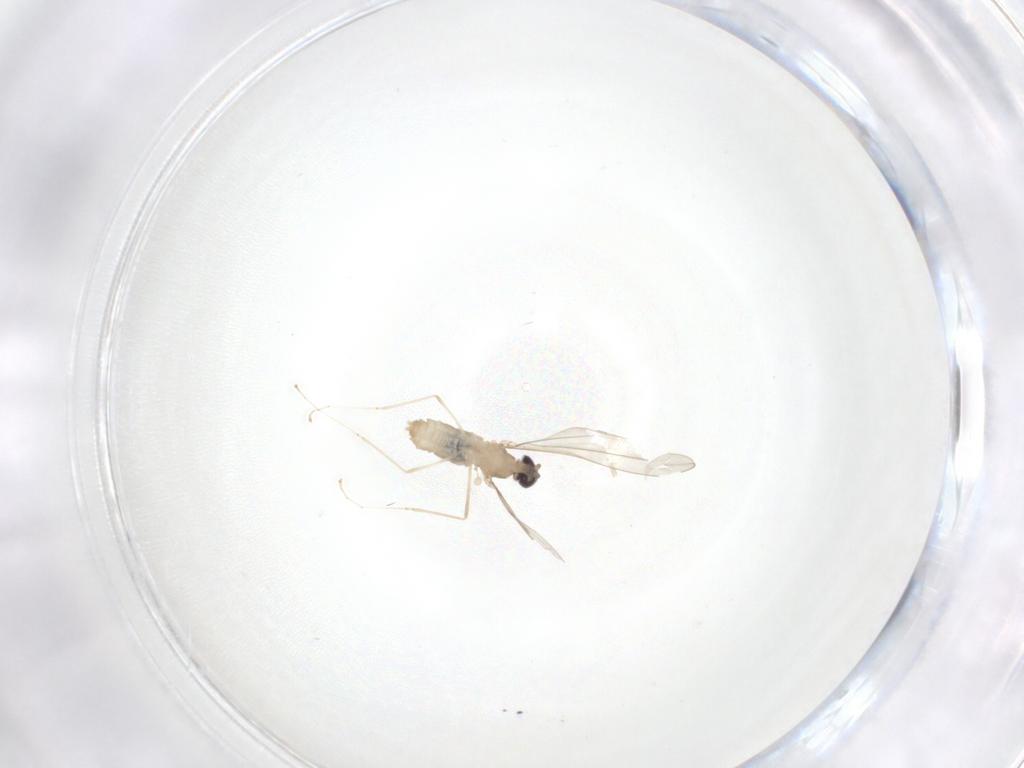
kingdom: Animalia
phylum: Arthropoda
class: Insecta
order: Diptera
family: Cecidomyiidae
